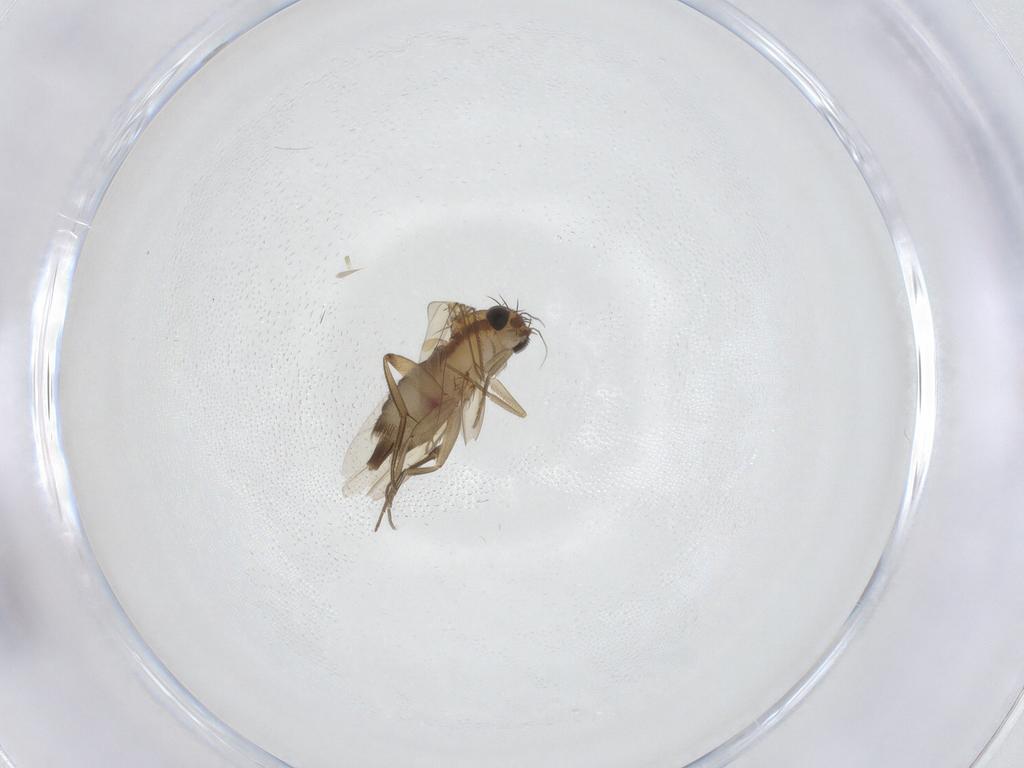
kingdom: Animalia
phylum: Arthropoda
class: Insecta
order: Diptera
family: Phoridae
